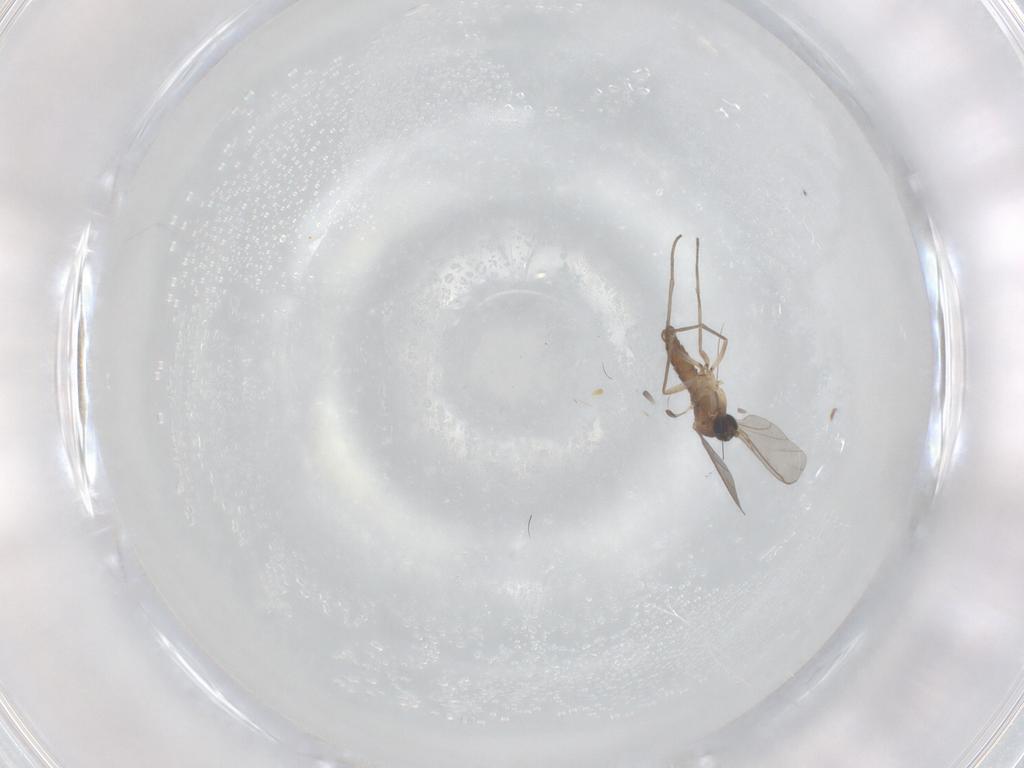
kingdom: Animalia
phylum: Arthropoda
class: Insecta
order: Diptera
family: Sciaridae
